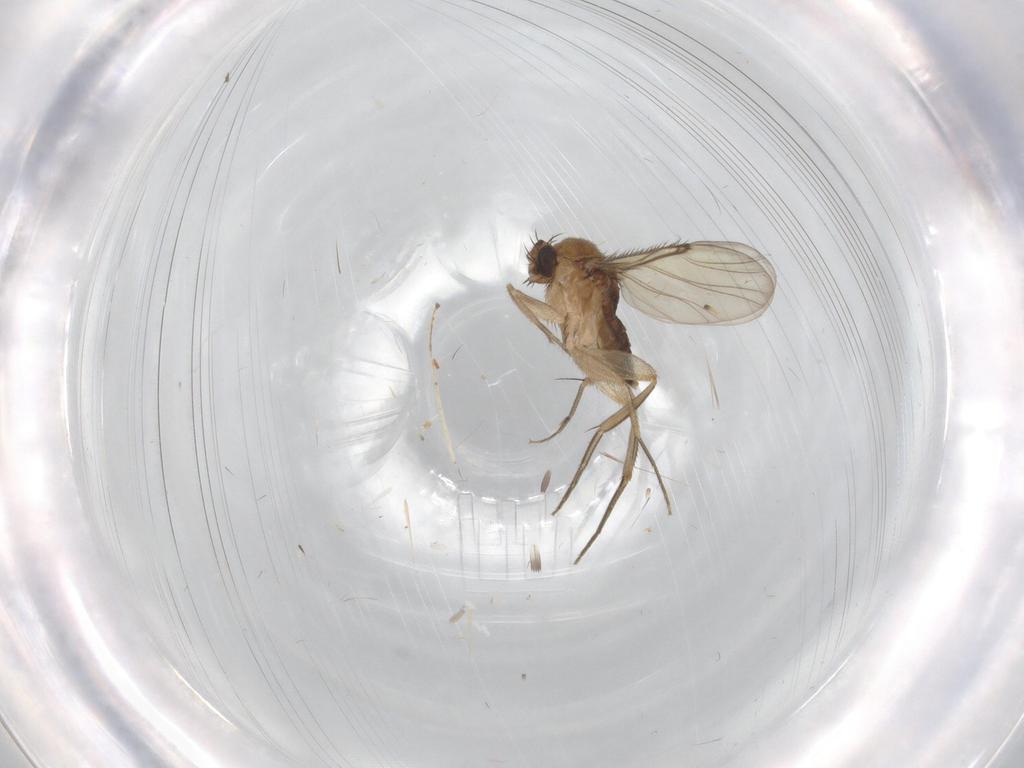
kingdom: Animalia
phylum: Arthropoda
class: Insecta
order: Diptera
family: Phoridae
